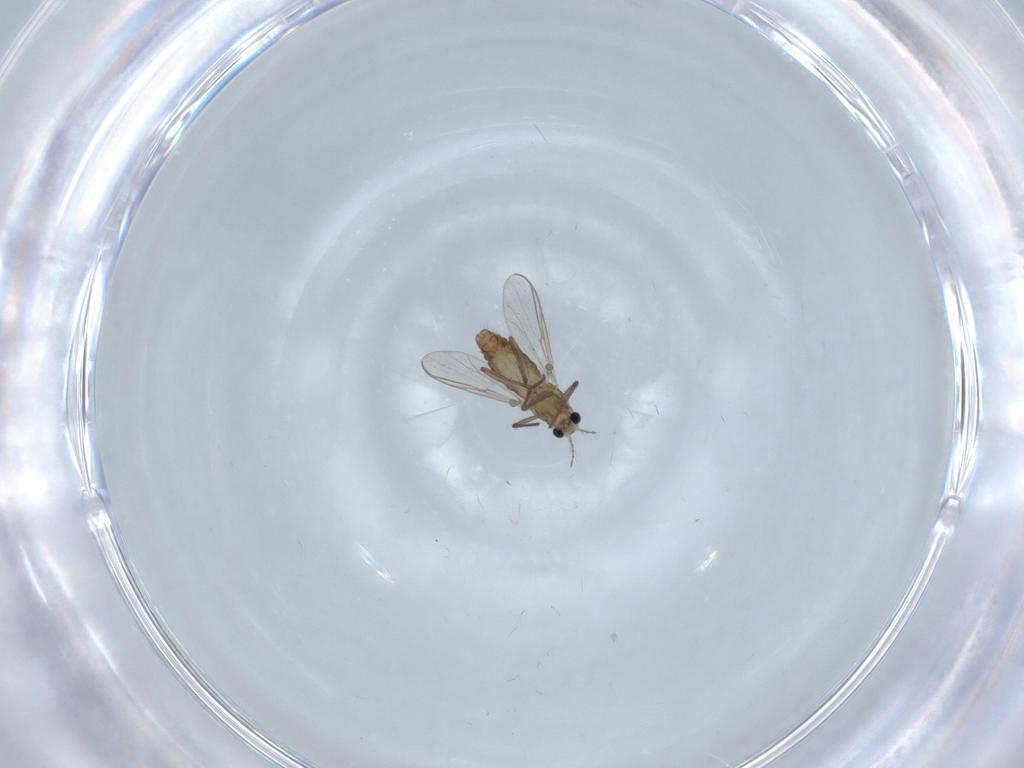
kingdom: Animalia
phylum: Arthropoda
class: Insecta
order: Diptera
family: Chironomidae
